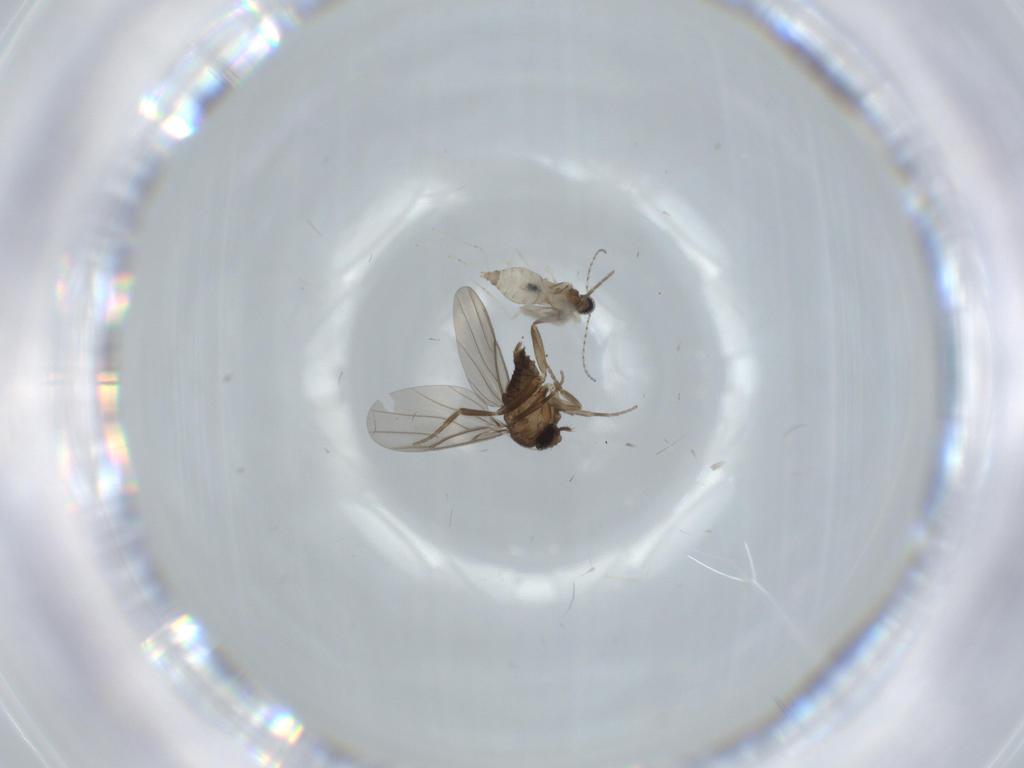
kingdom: Animalia
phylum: Arthropoda
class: Insecta
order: Diptera
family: Cecidomyiidae
